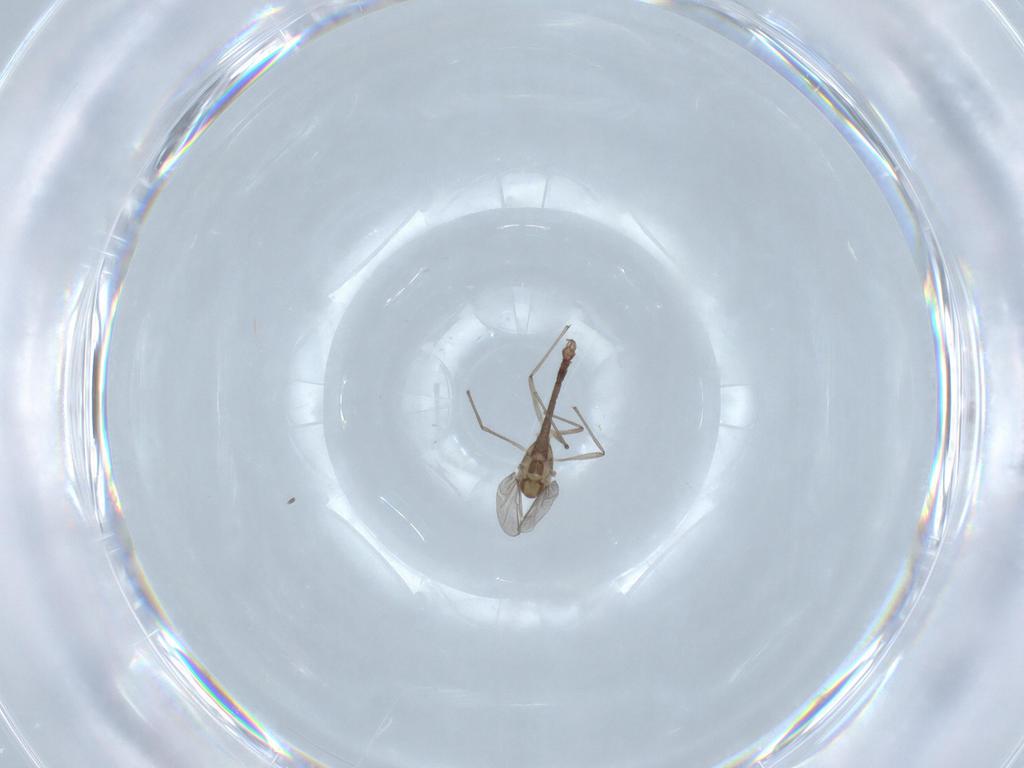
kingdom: Animalia
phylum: Arthropoda
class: Insecta
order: Diptera
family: Chironomidae
